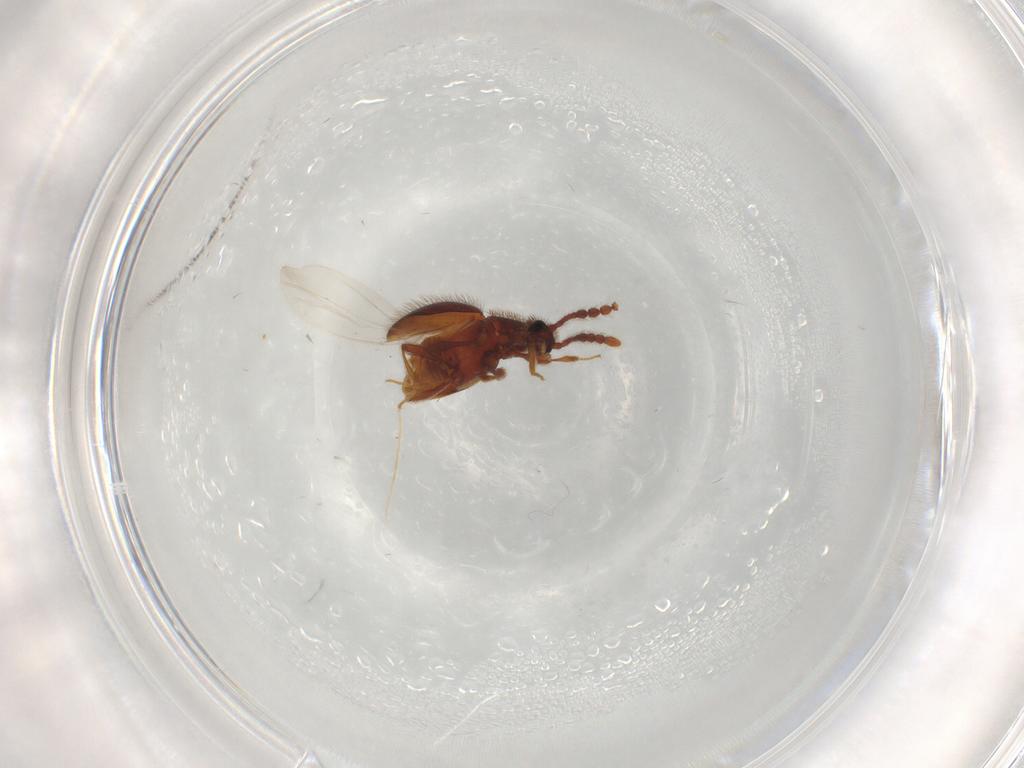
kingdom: Animalia
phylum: Arthropoda
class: Insecta
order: Coleoptera
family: Staphylinidae
